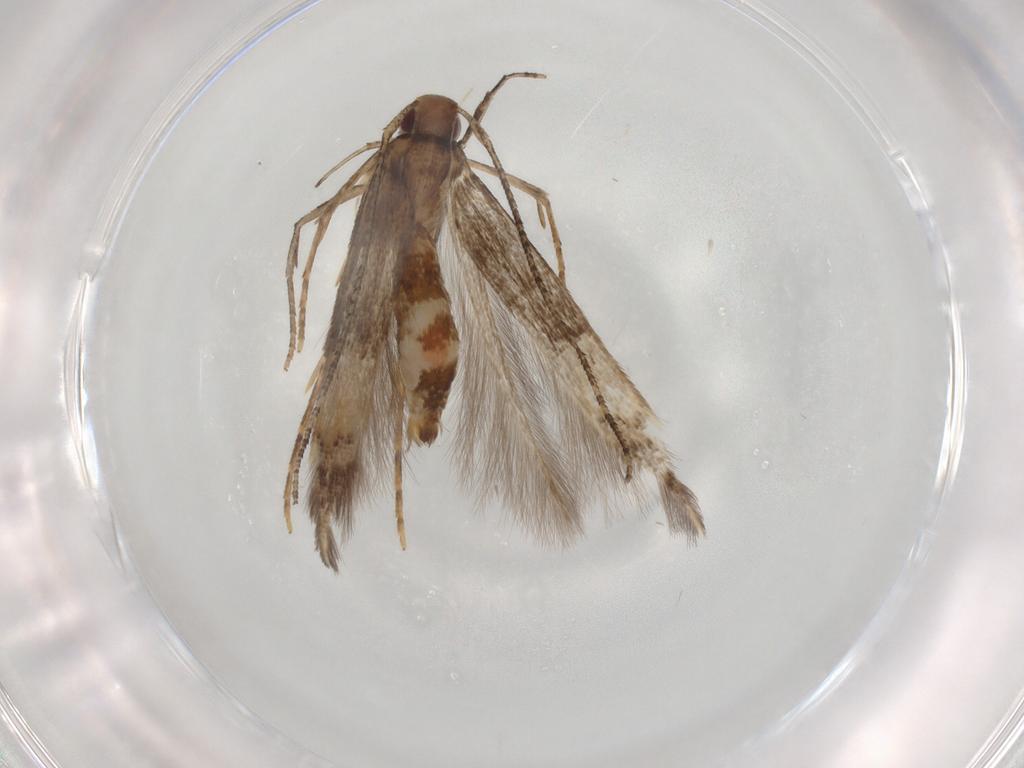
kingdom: Animalia
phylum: Arthropoda
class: Insecta
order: Lepidoptera
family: Cosmopterigidae
